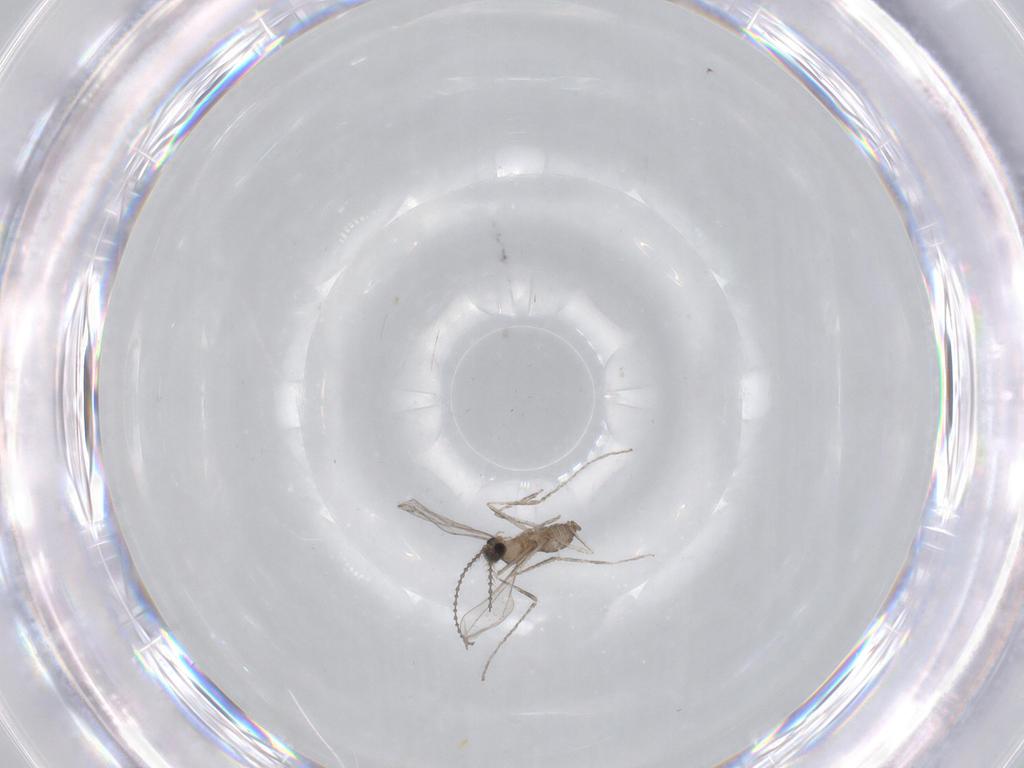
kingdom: Animalia
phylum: Arthropoda
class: Insecta
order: Diptera
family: Cecidomyiidae
